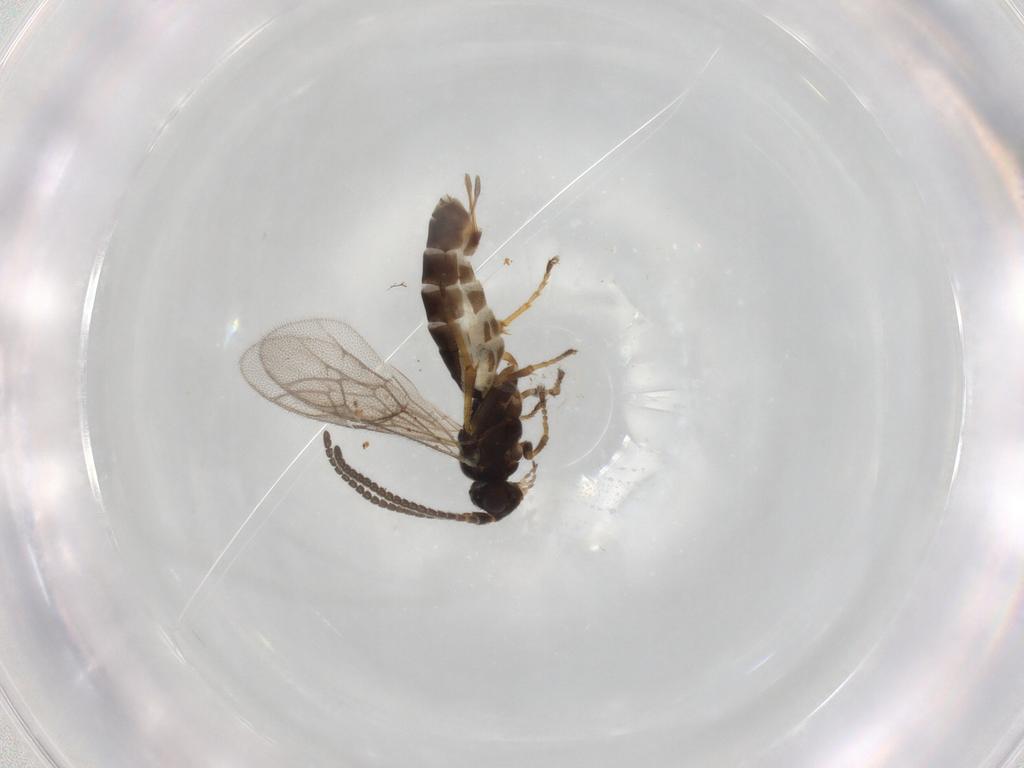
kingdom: Animalia
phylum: Arthropoda
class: Insecta
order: Hymenoptera
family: Ichneumonidae
